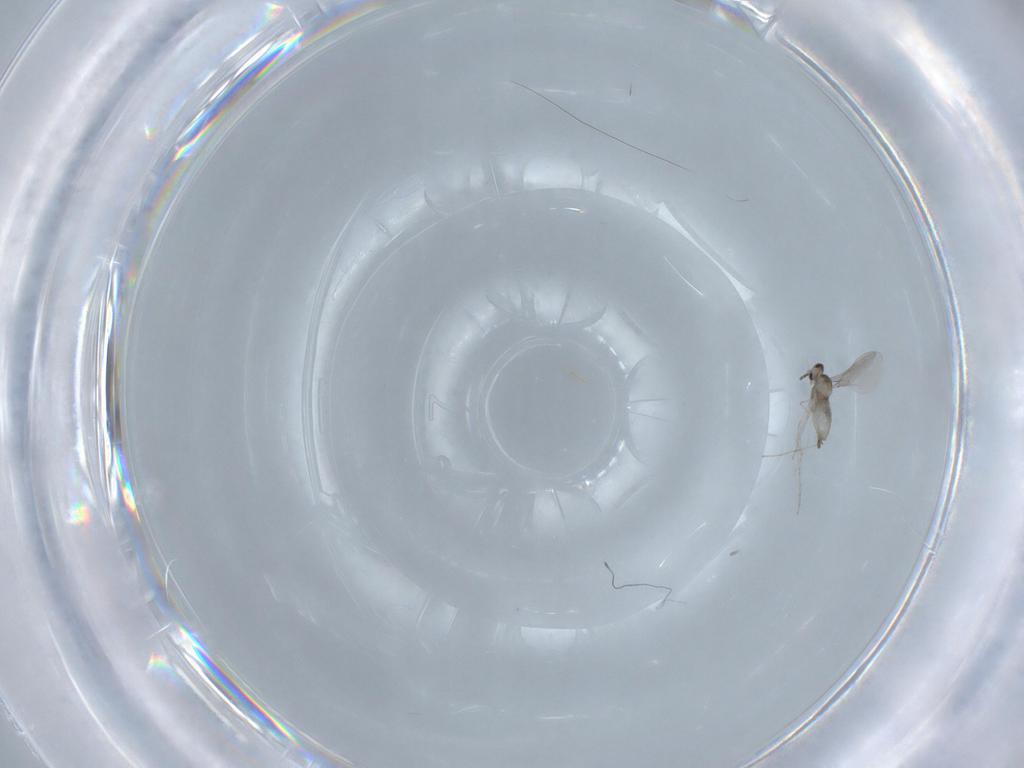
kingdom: Animalia
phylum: Arthropoda
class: Insecta
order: Diptera
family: Cecidomyiidae
